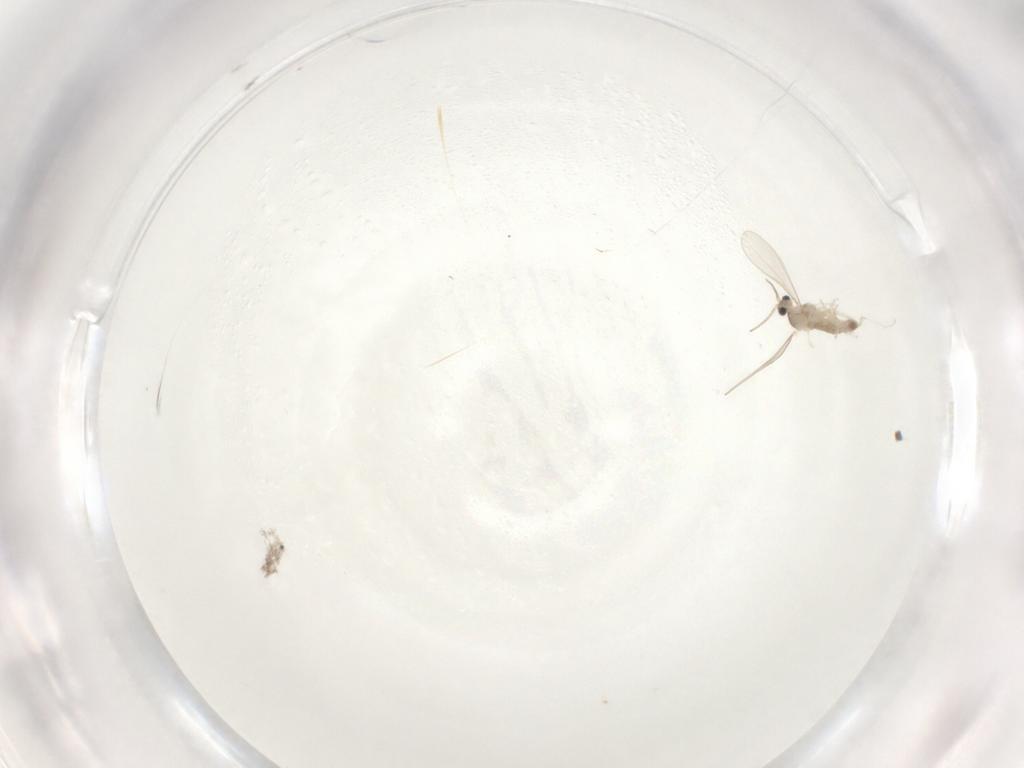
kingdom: Animalia
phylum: Arthropoda
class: Insecta
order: Diptera
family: Cecidomyiidae
